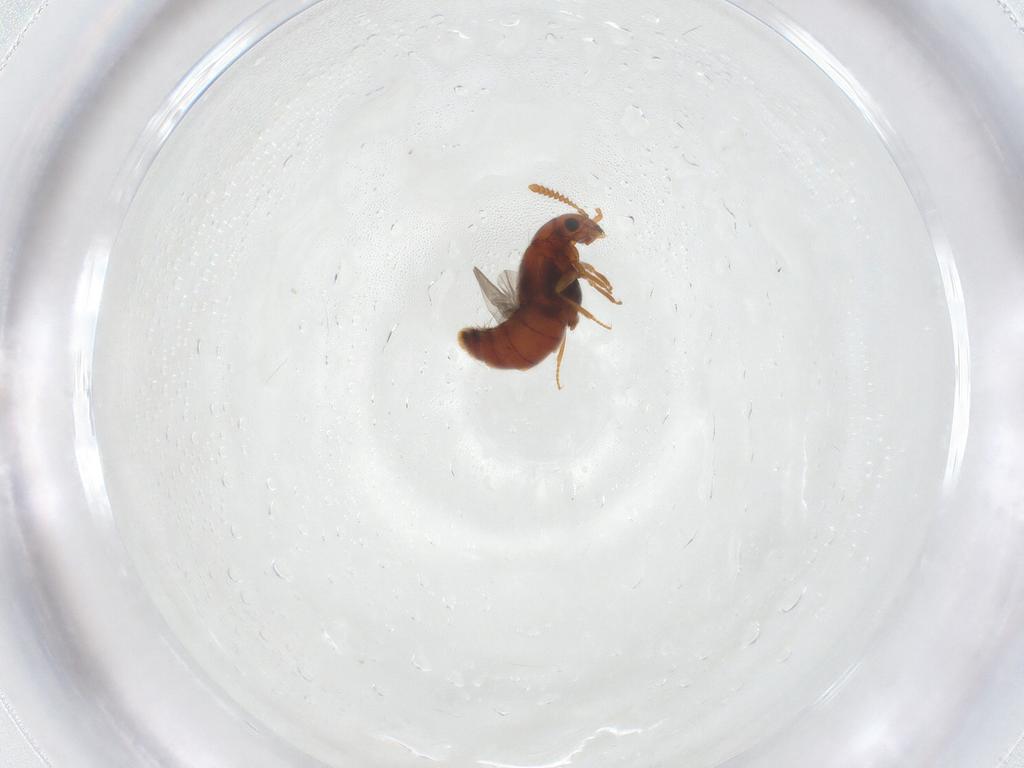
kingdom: Animalia
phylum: Arthropoda
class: Insecta
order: Coleoptera
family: Staphylinidae
